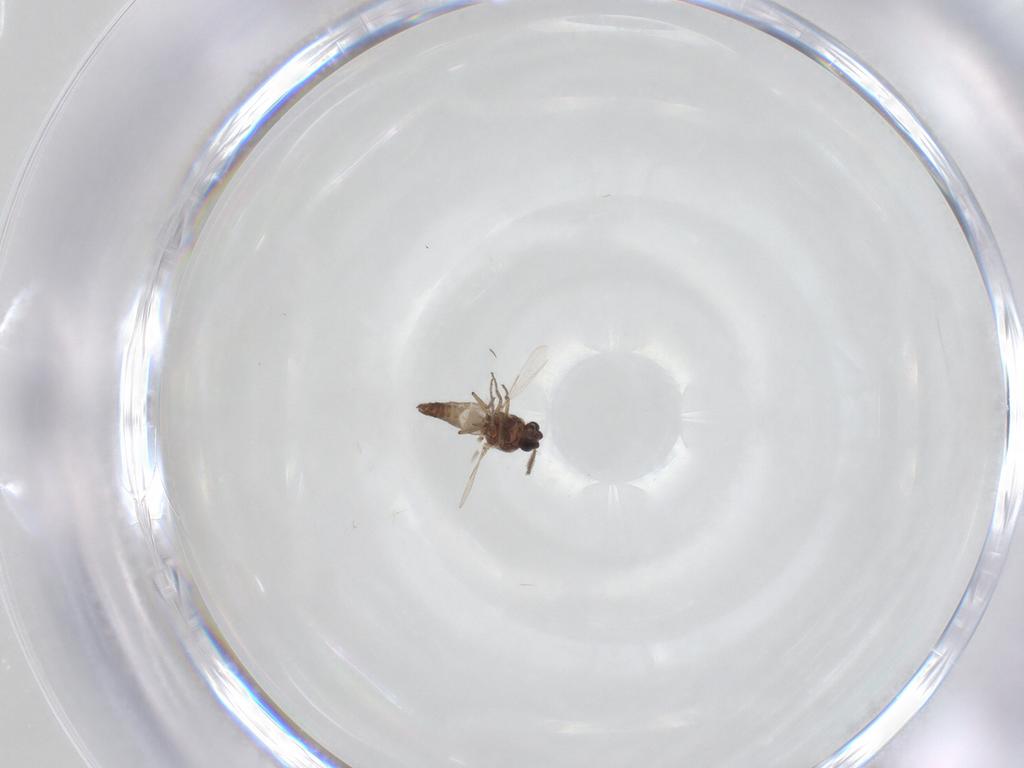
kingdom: Animalia
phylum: Arthropoda
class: Insecta
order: Diptera
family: Ceratopogonidae
